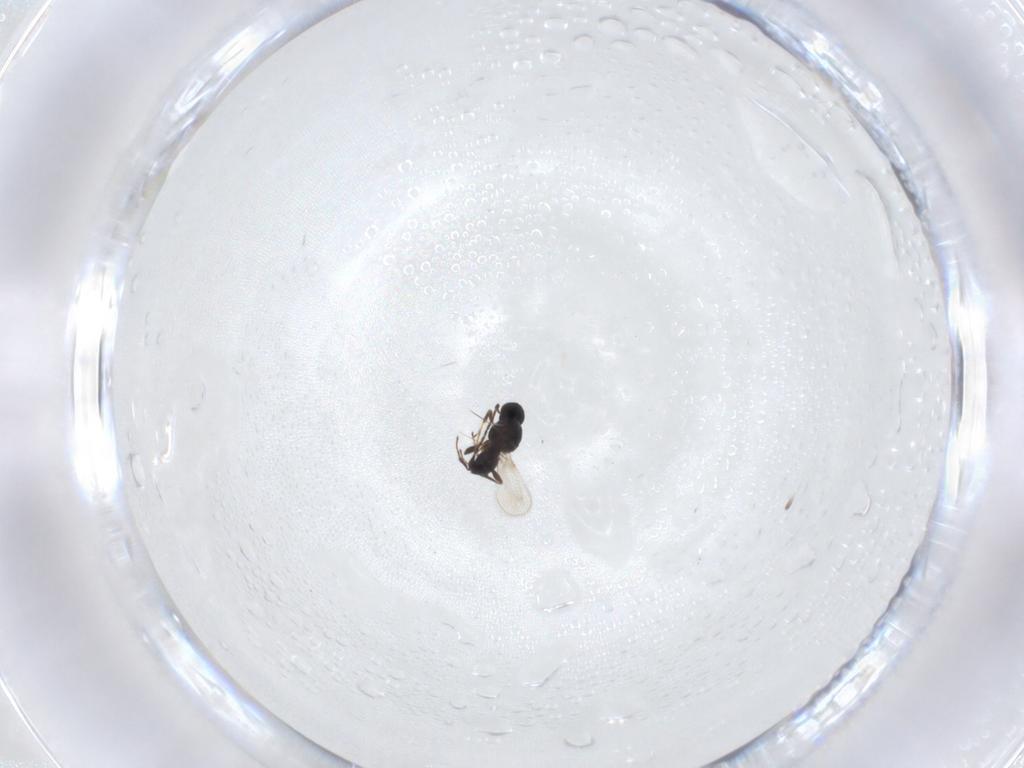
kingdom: Animalia
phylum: Arthropoda
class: Insecta
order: Hymenoptera
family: Platygastridae
